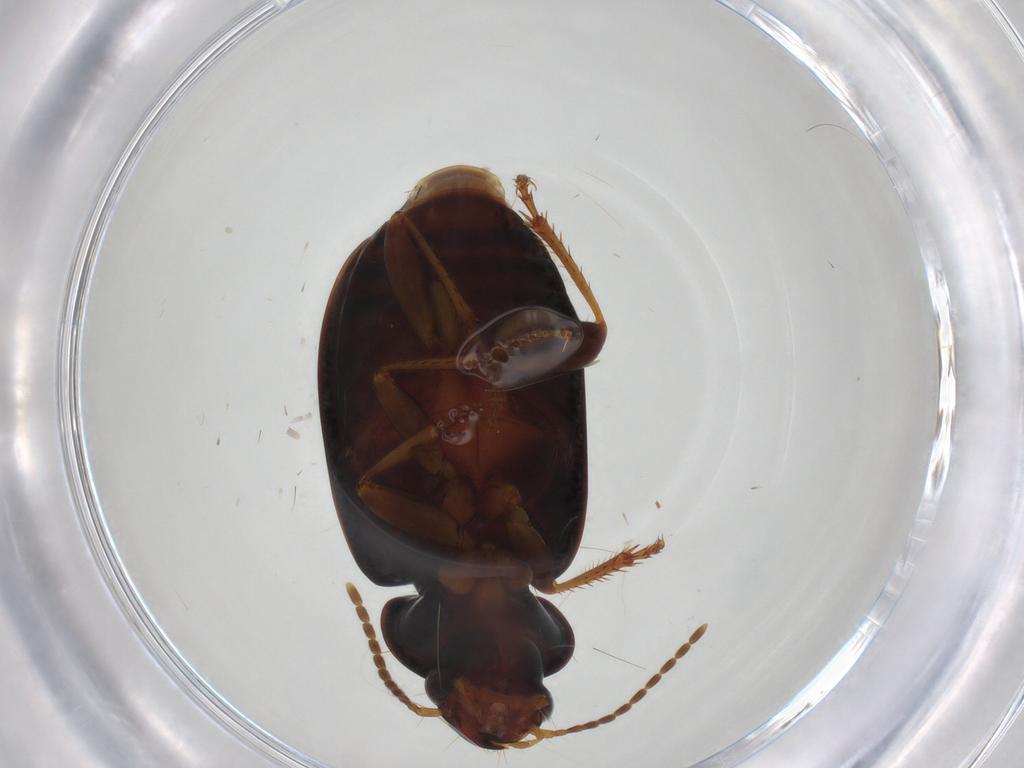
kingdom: Animalia
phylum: Arthropoda
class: Insecta
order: Coleoptera
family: Carabidae
